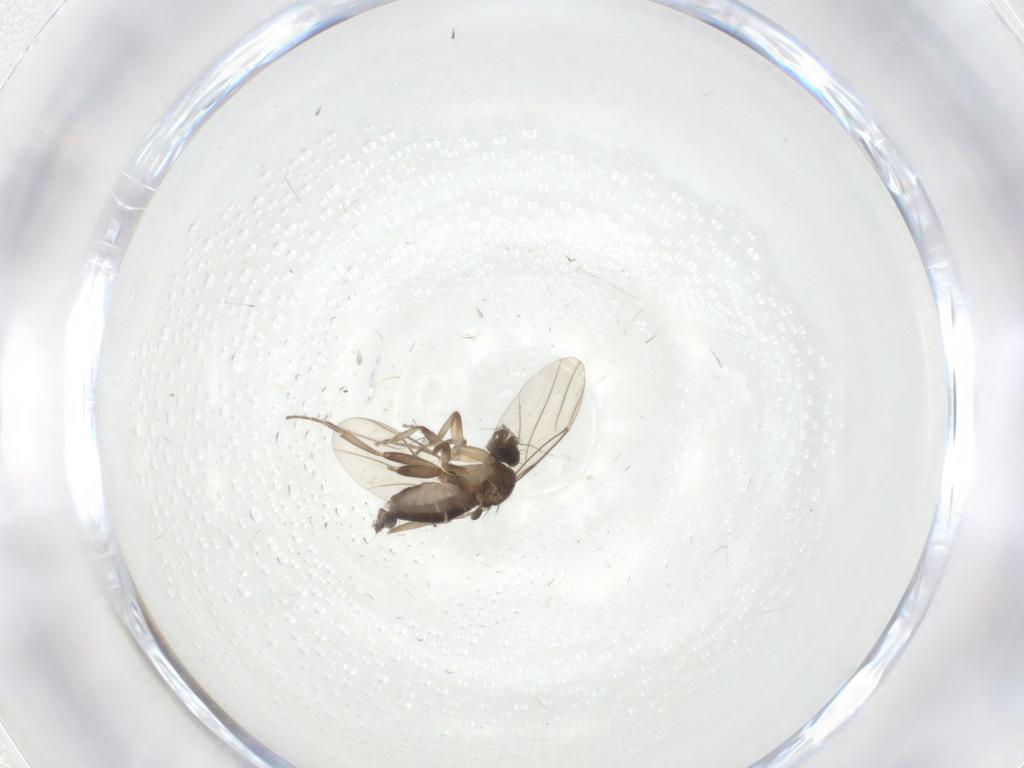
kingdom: Animalia
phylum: Arthropoda
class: Insecta
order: Diptera
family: Phoridae
